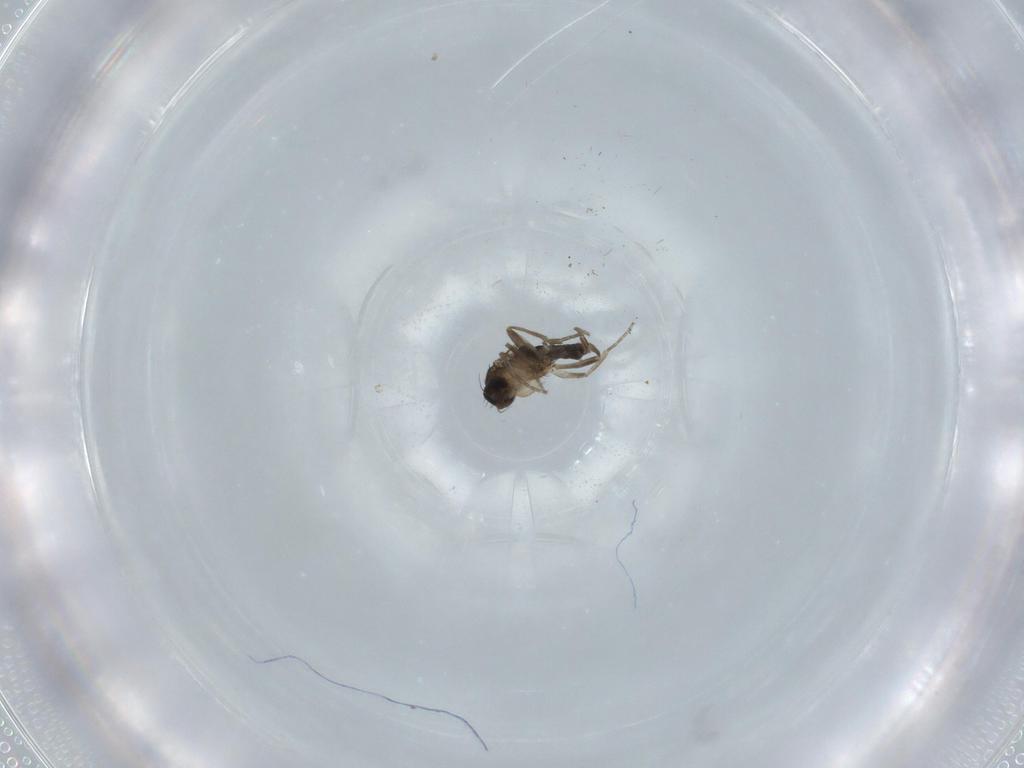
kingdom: Animalia
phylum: Arthropoda
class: Insecta
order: Diptera
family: Phoridae
